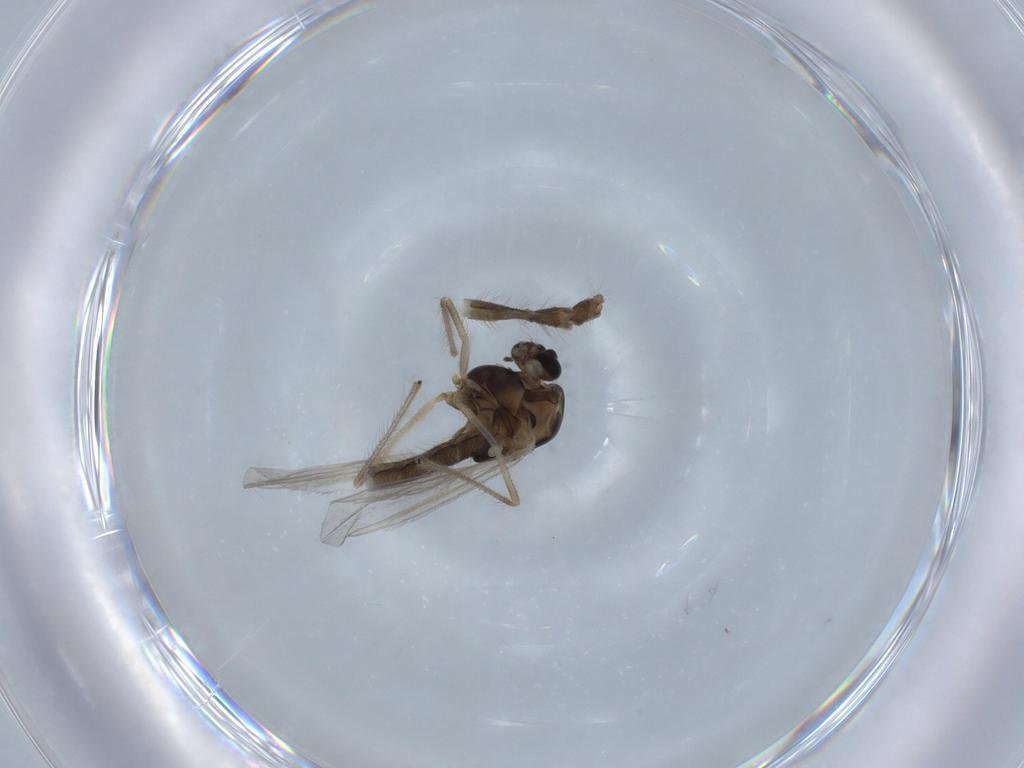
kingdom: Animalia
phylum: Arthropoda
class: Insecta
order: Diptera
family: Chironomidae
